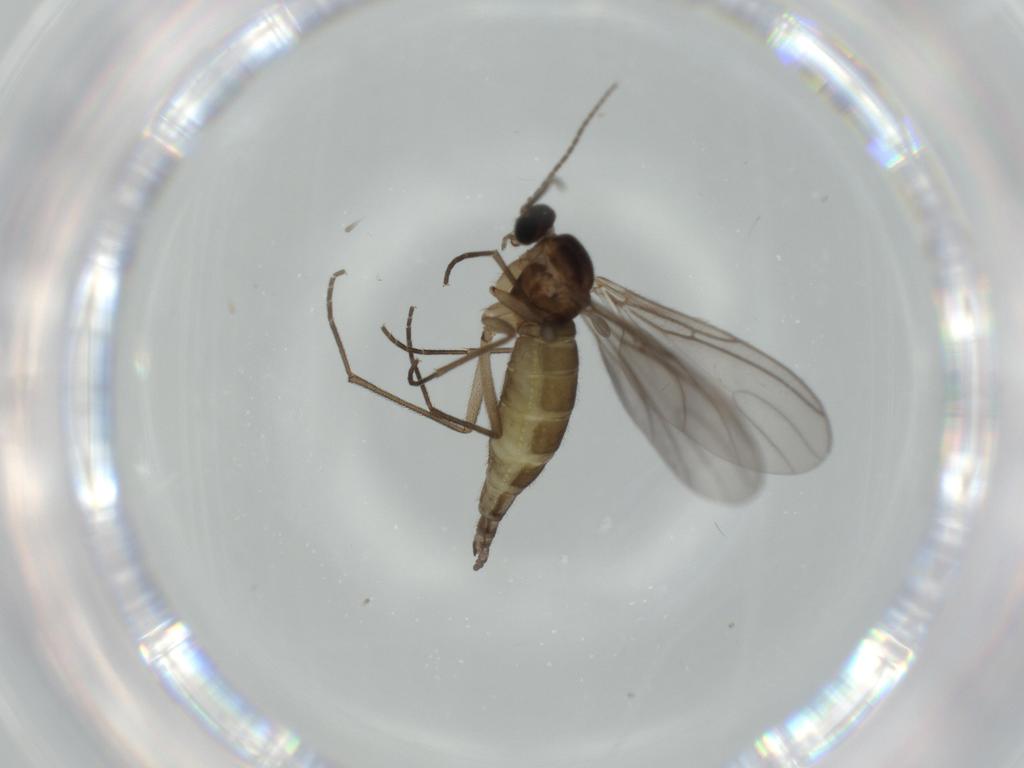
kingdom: Animalia
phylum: Arthropoda
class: Insecta
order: Diptera
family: Sciaridae
